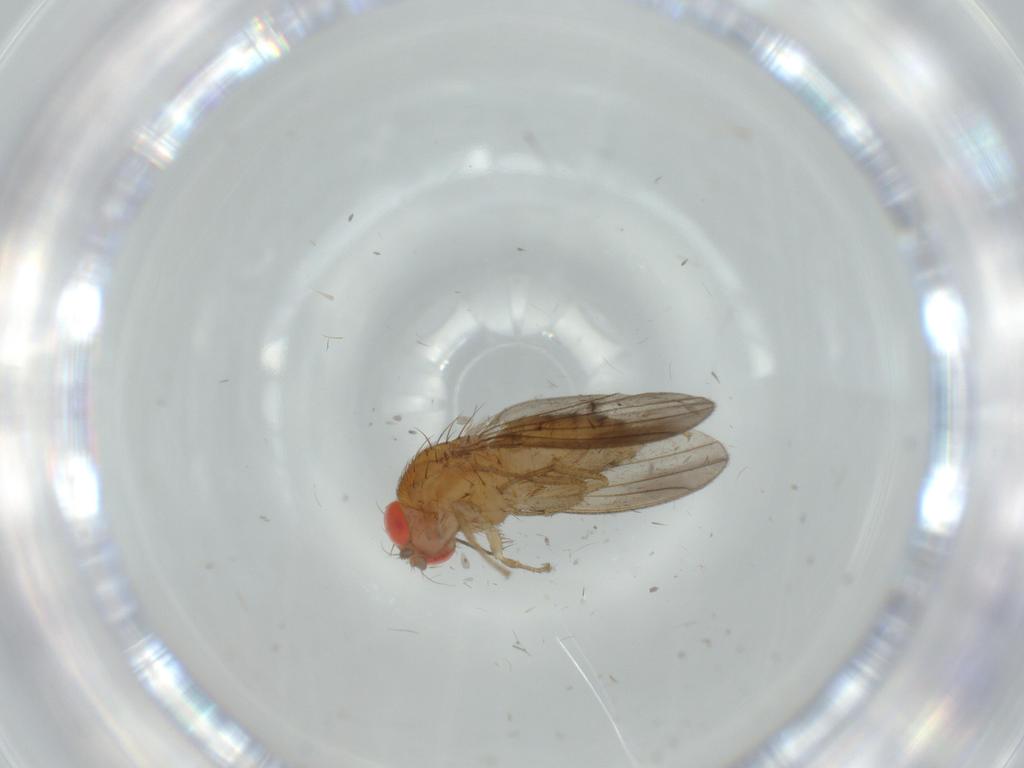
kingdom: Animalia
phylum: Arthropoda
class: Insecta
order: Diptera
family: Drosophilidae
